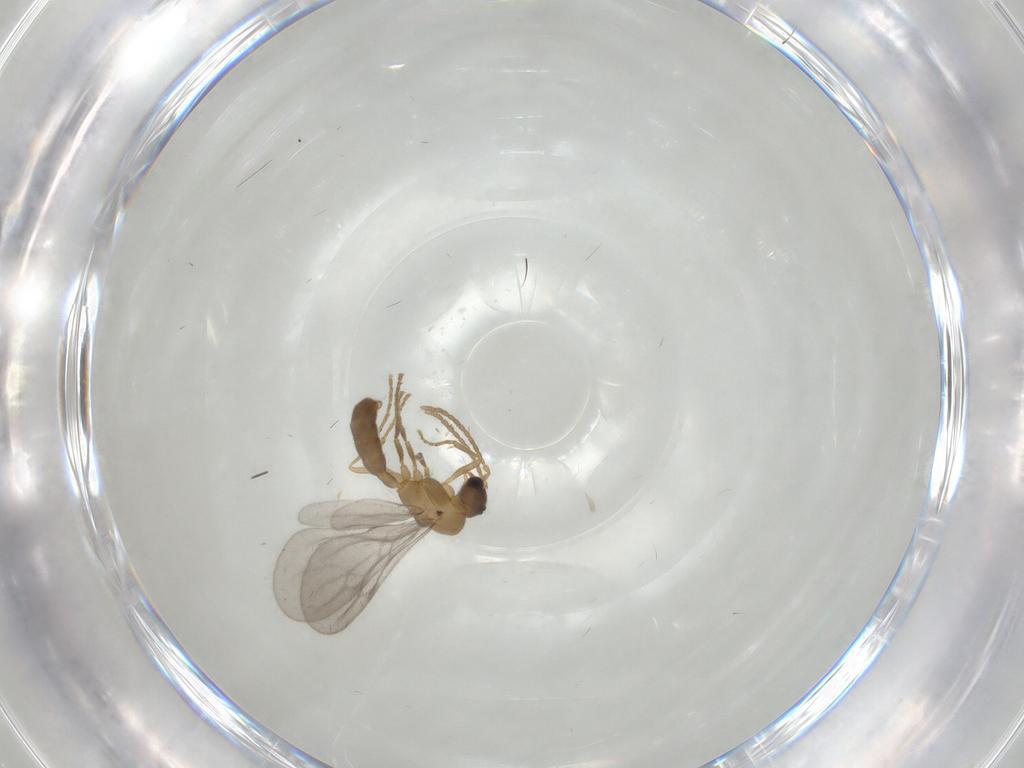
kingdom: Animalia
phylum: Arthropoda
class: Insecta
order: Hymenoptera
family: Formicidae
